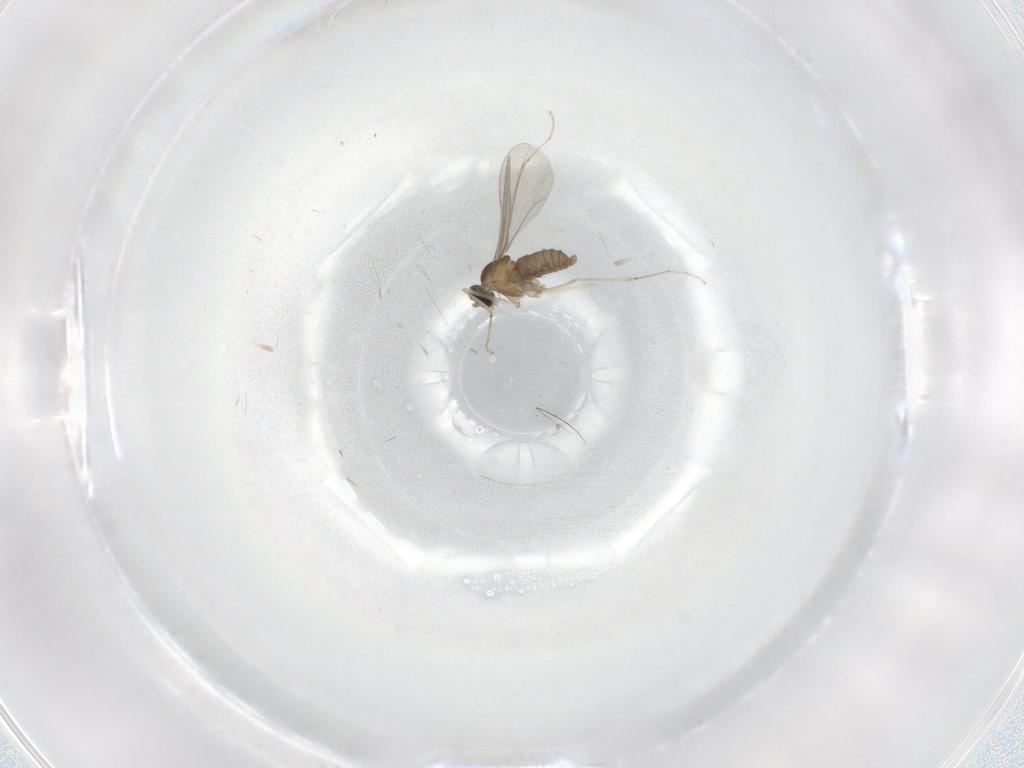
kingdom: Animalia
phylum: Arthropoda
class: Insecta
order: Diptera
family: Cecidomyiidae
